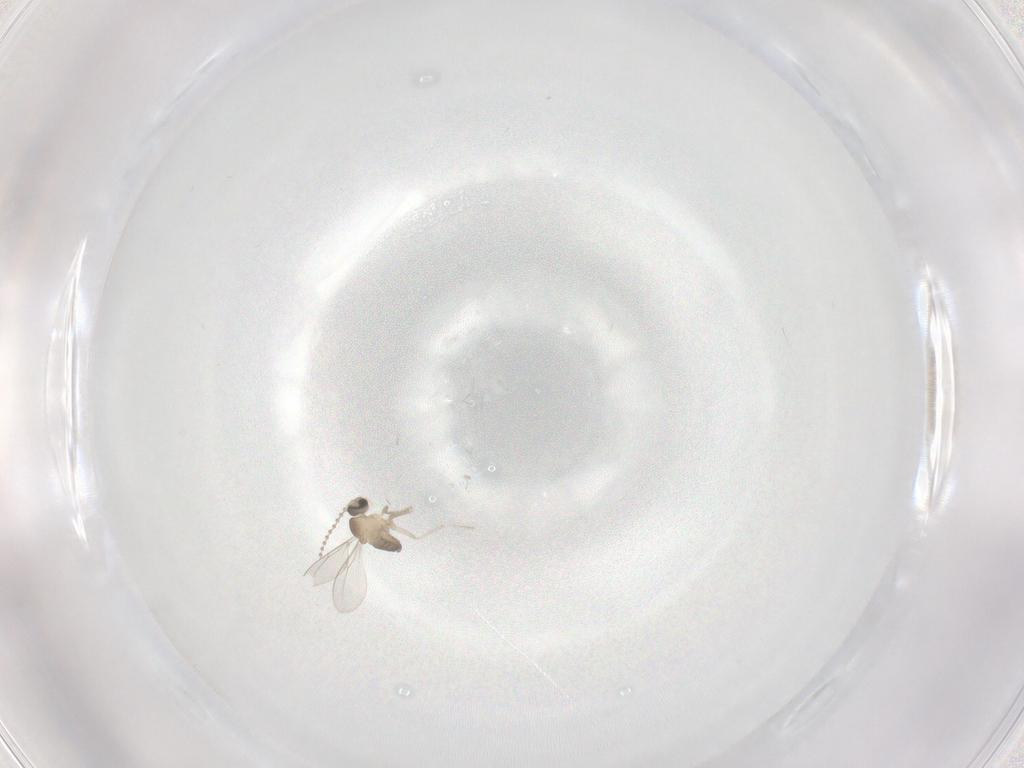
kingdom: Animalia
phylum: Arthropoda
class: Insecta
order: Diptera
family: Cecidomyiidae
